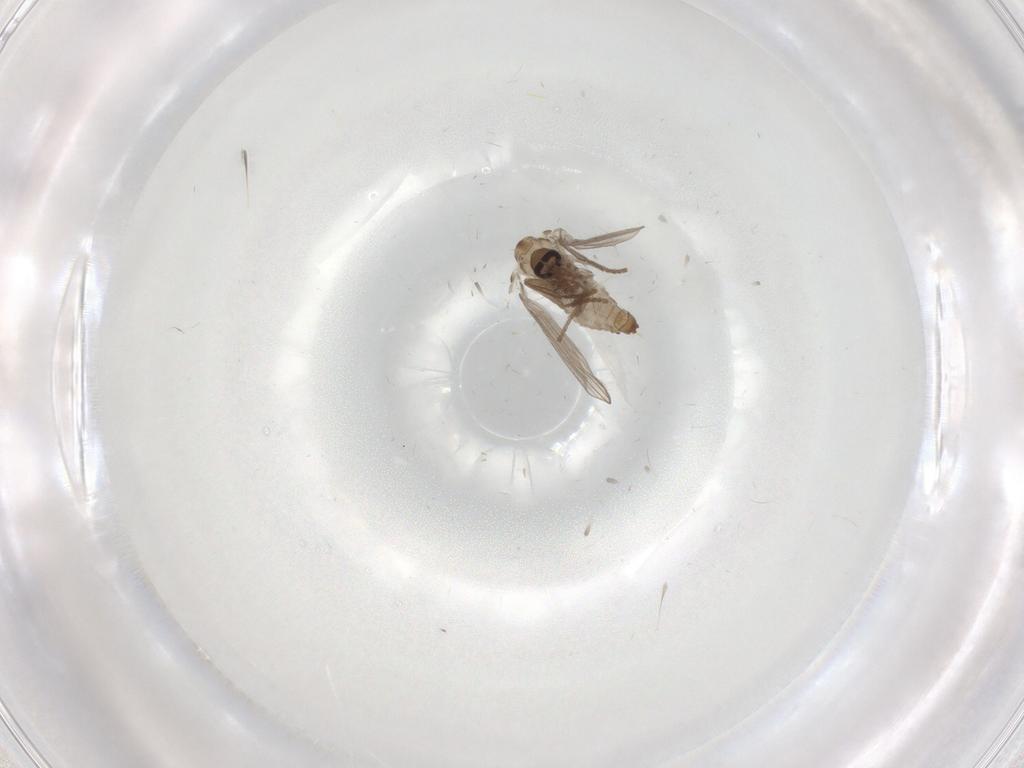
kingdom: Animalia
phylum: Arthropoda
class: Insecta
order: Diptera
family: Psychodidae
